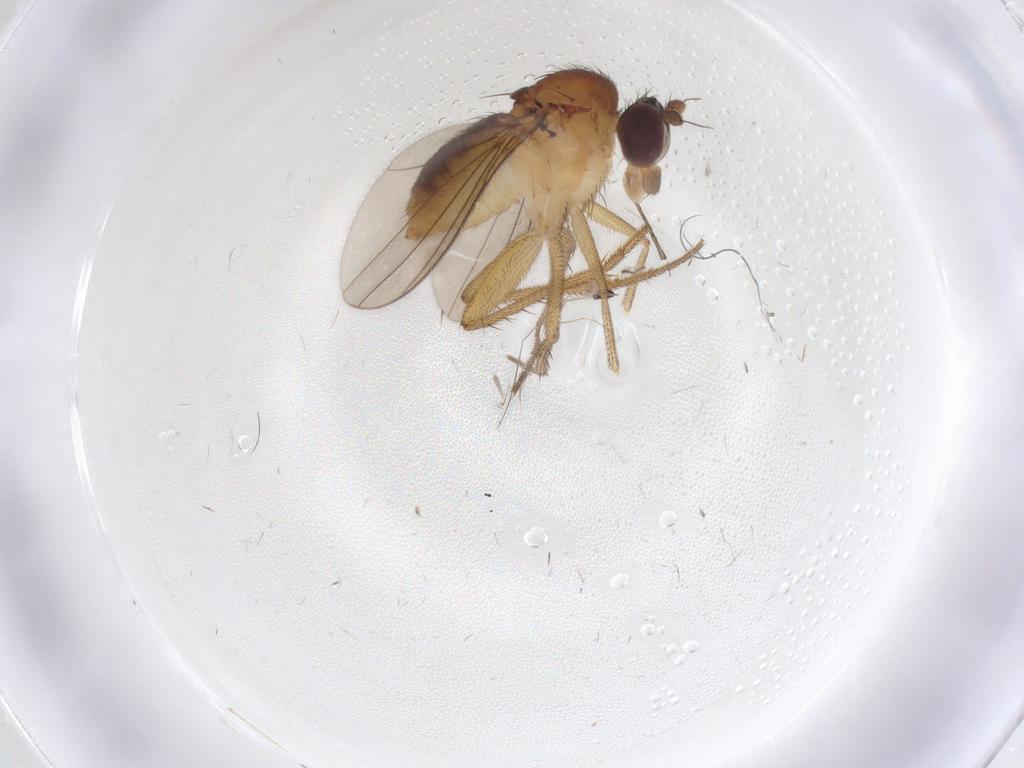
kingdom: Animalia
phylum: Arthropoda
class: Insecta
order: Diptera
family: Dolichopodidae
